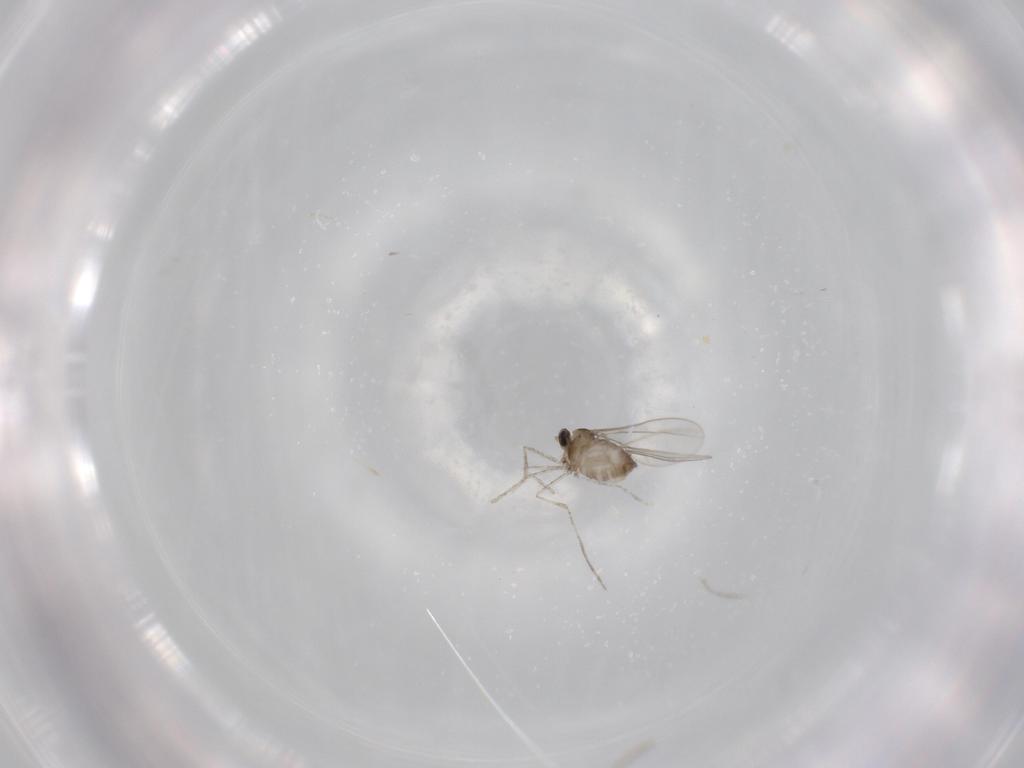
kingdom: Animalia
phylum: Arthropoda
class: Insecta
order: Diptera
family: Cecidomyiidae
